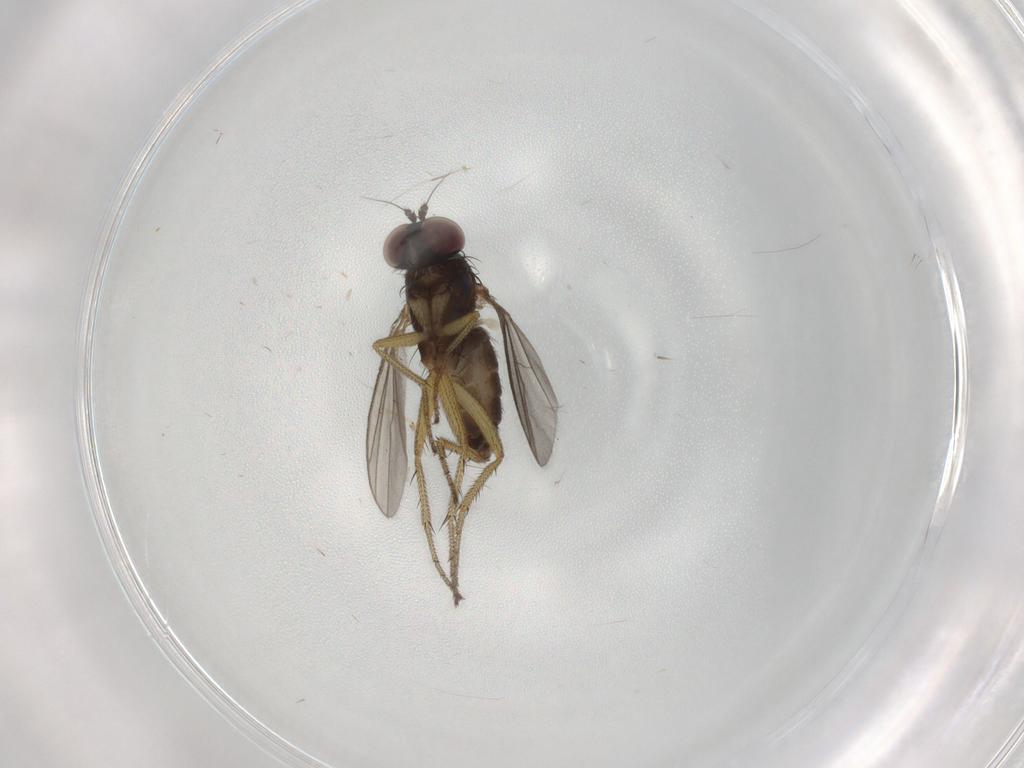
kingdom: Animalia
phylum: Arthropoda
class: Insecta
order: Diptera
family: Dolichopodidae
